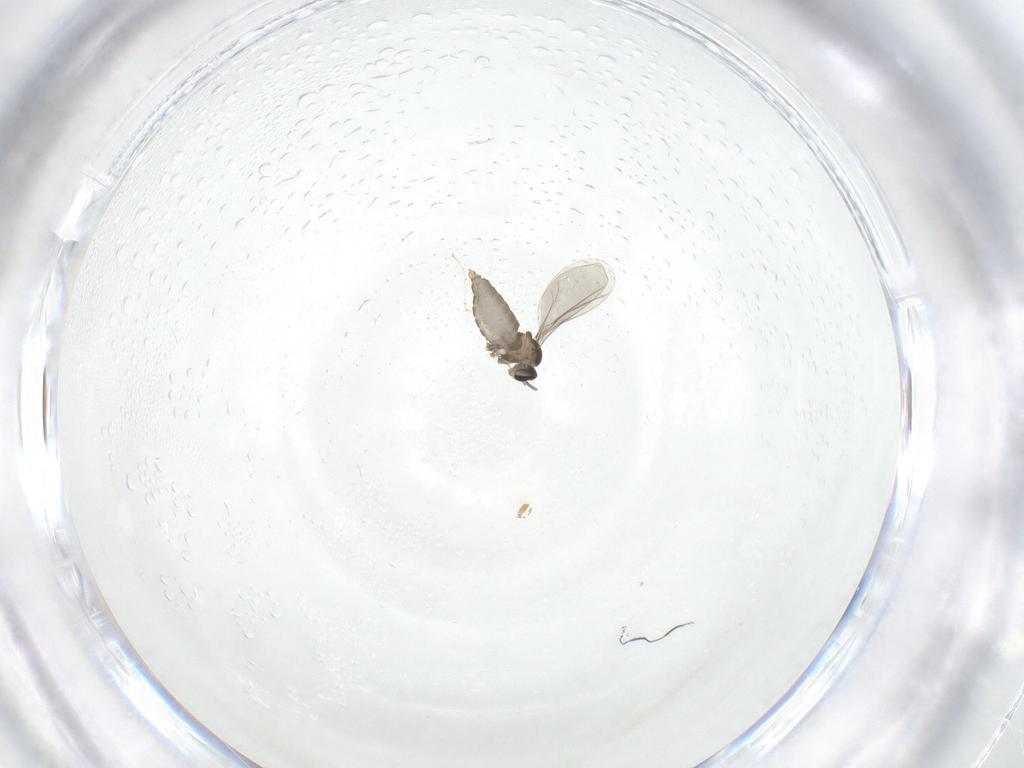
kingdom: Animalia
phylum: Arthropoda
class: Insecta
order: Diptera
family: Cecidomyiidae
